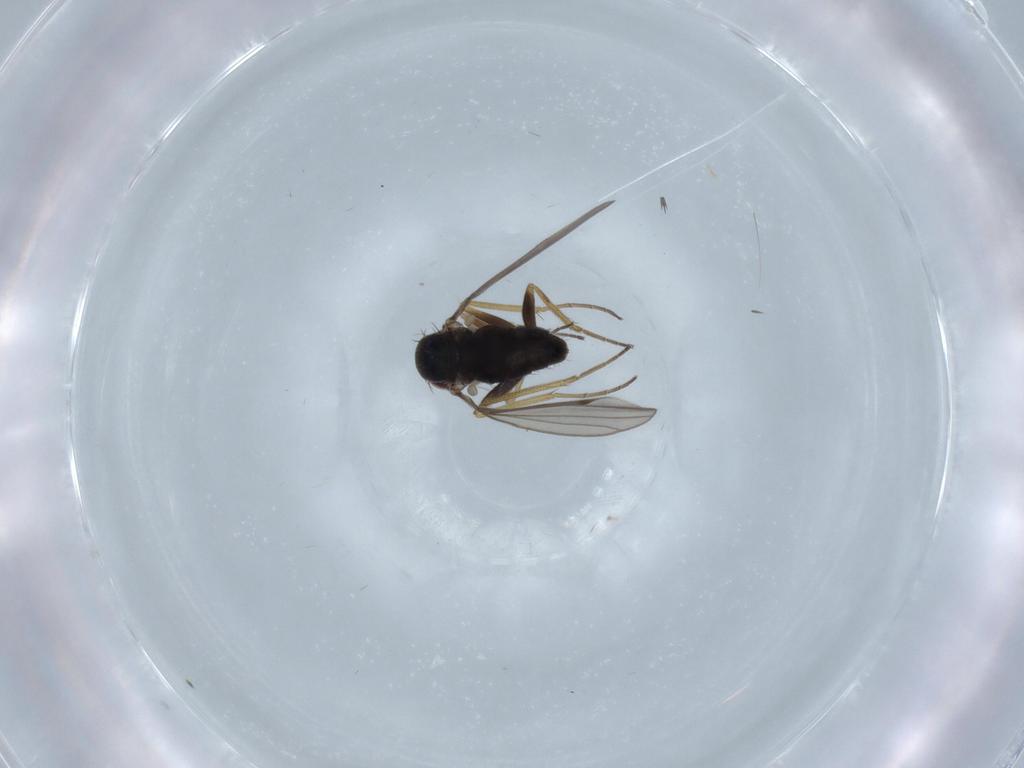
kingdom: Animalia
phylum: Arthropoda
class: Insecta
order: Diptera
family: Dolichopodidae
